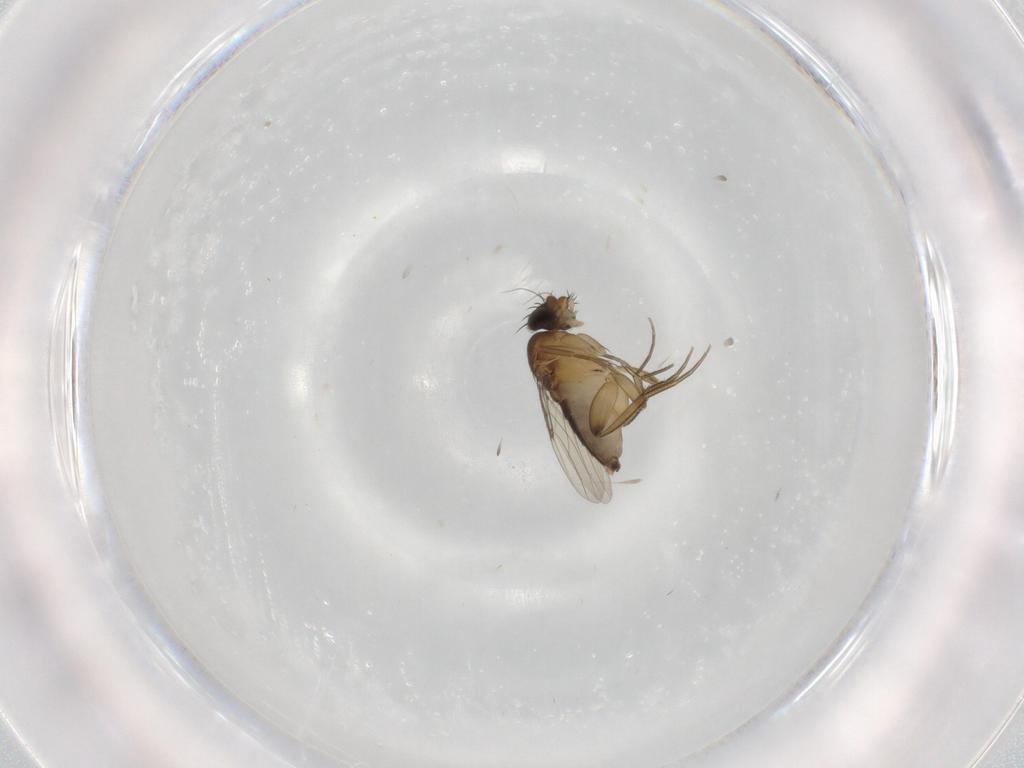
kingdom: Animalia
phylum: Arthropoda
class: Insecta
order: Diptera
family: Phoridae
